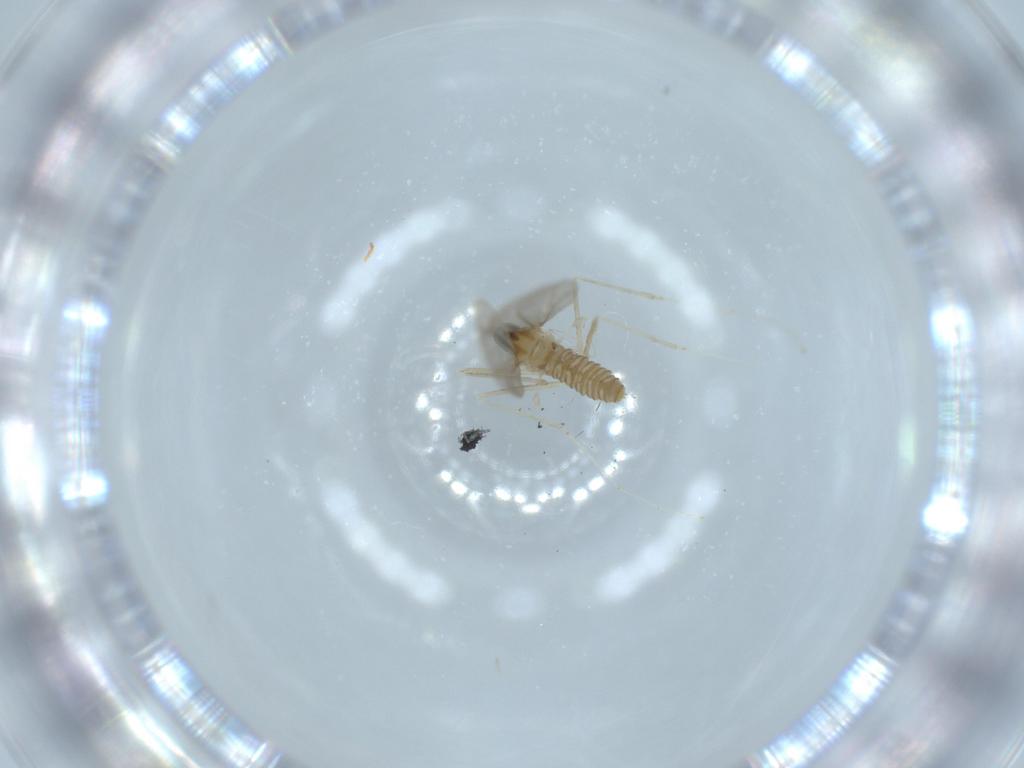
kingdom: Animalia
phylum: Arthropoda
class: Insecta
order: Diptera
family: Cecidomyiidae
